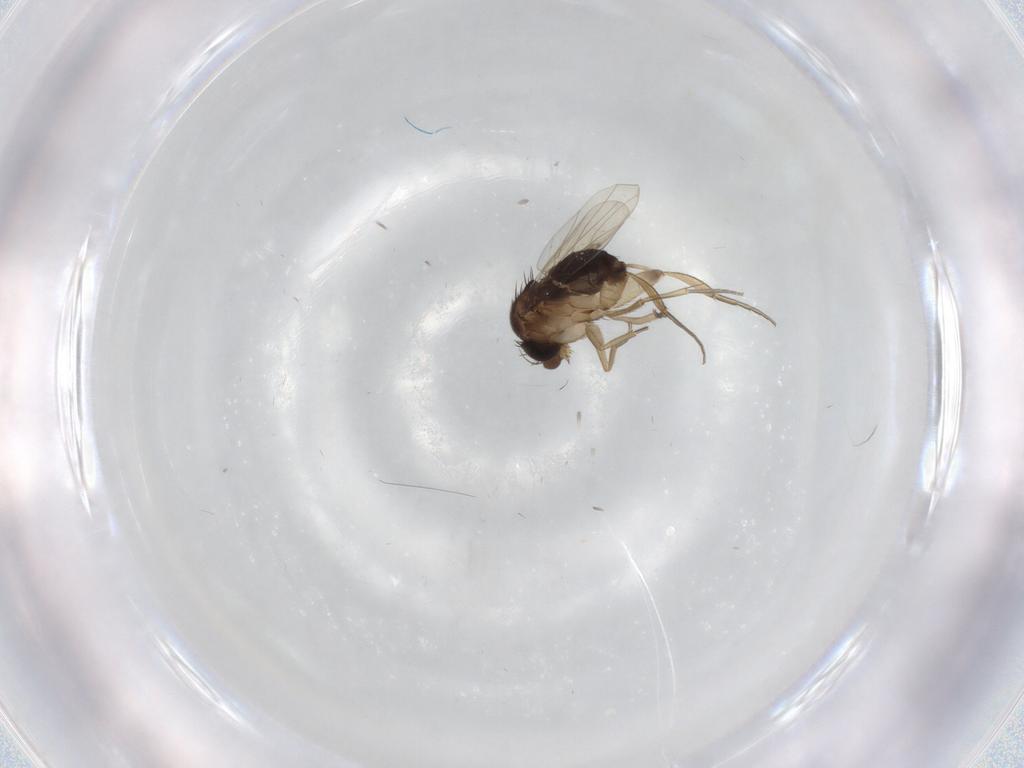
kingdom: Animalia
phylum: Arthropoda
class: Insecta
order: Diptera
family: Phoridae
